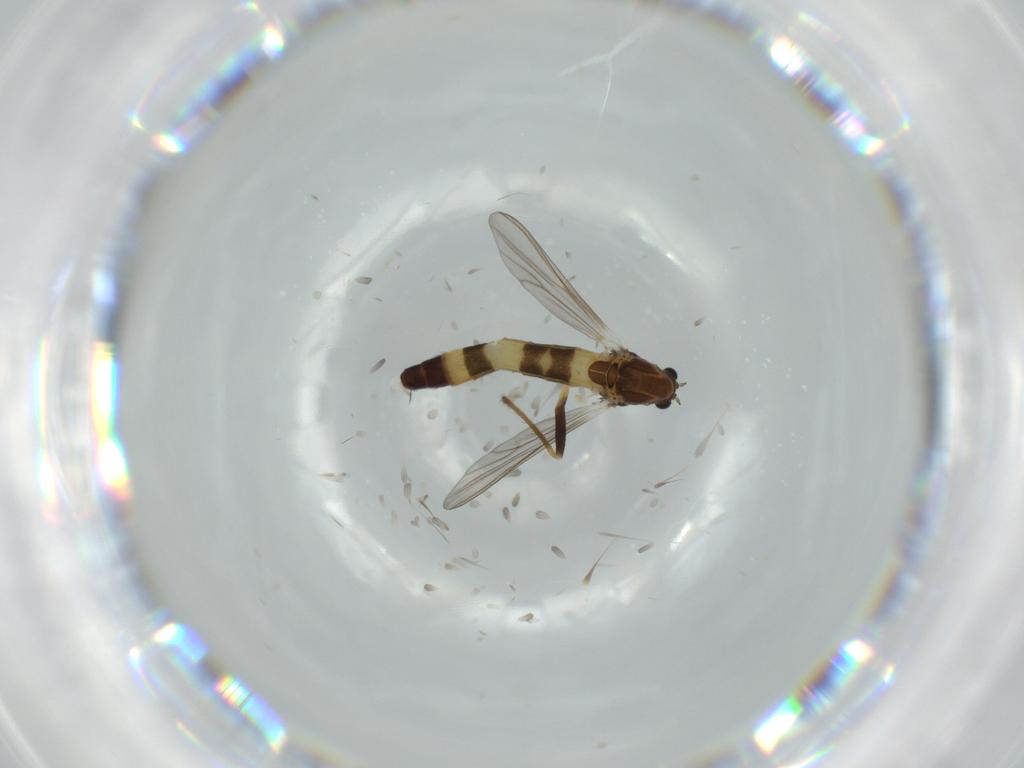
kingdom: Animalia
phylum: Arthropoda
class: Insecta
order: Diptera
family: Chironomidae
